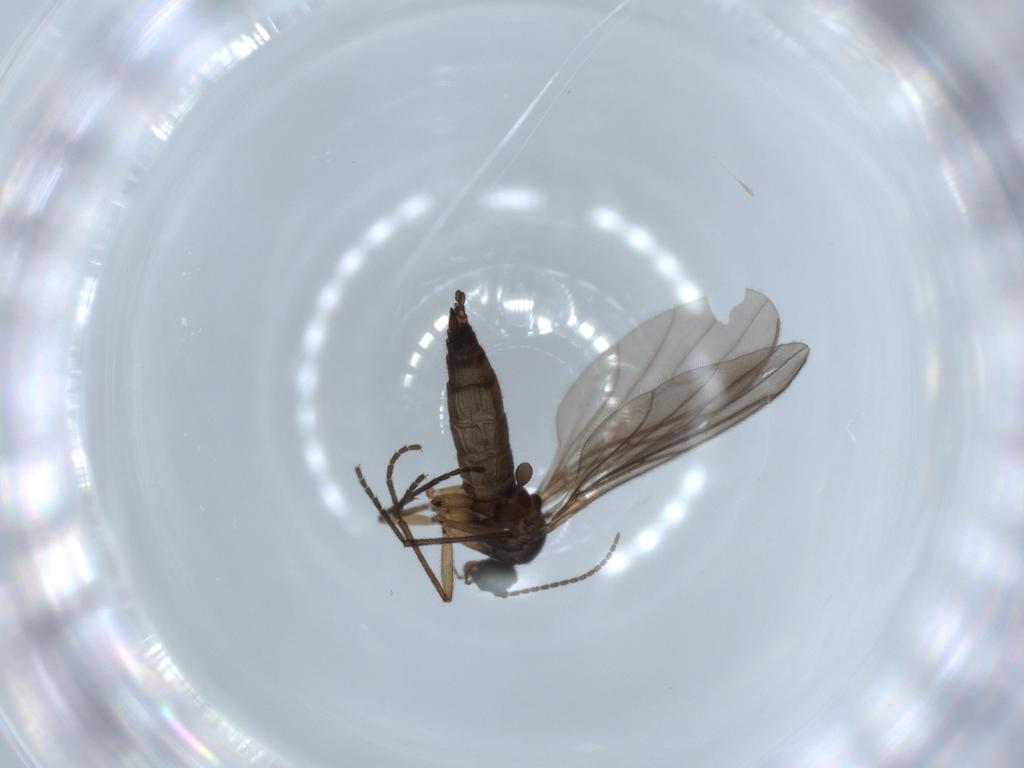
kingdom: Animalia
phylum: Arthropoda
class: Insecta
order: Diptera
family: Sciaridae
